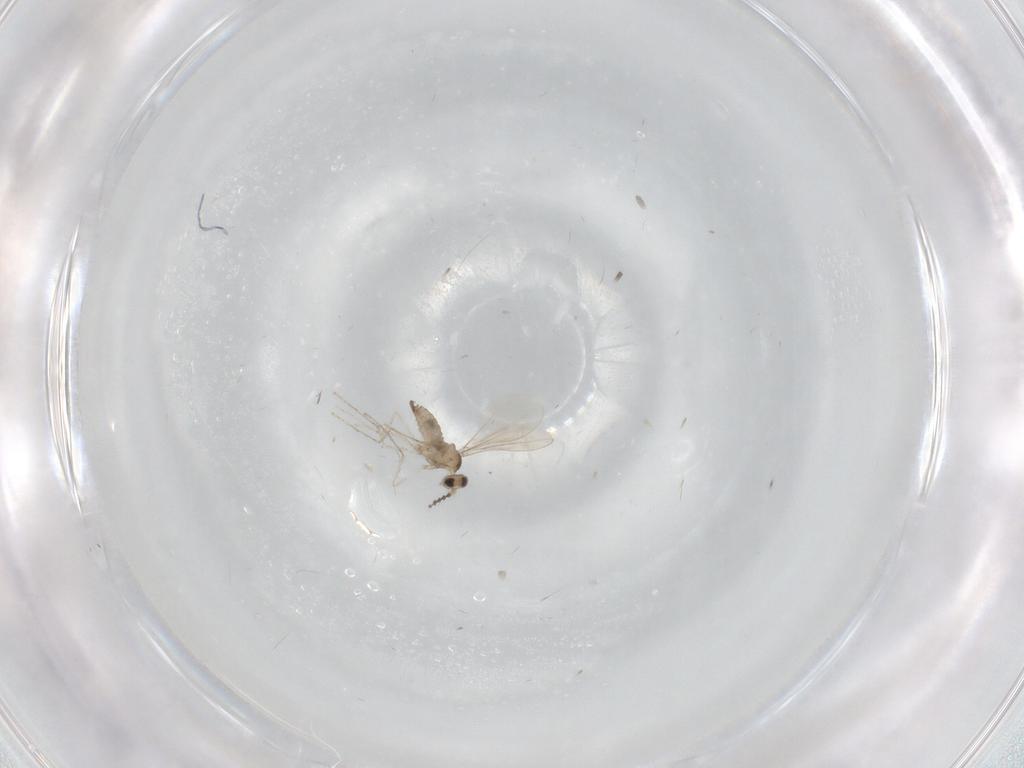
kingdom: Animalia
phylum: Arthropoda
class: Insecta
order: Diptera
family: Cecidomyiidae
